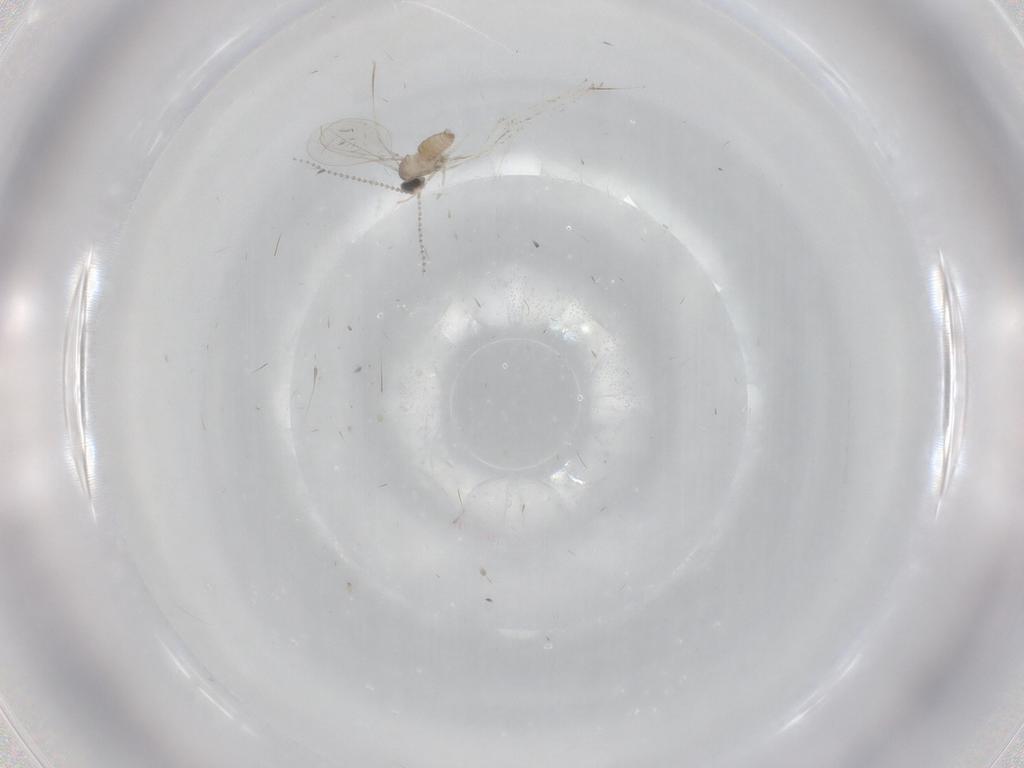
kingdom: Animalia
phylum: Arthropoda
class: Insecta
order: Diptera
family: Cecidomyiidae
